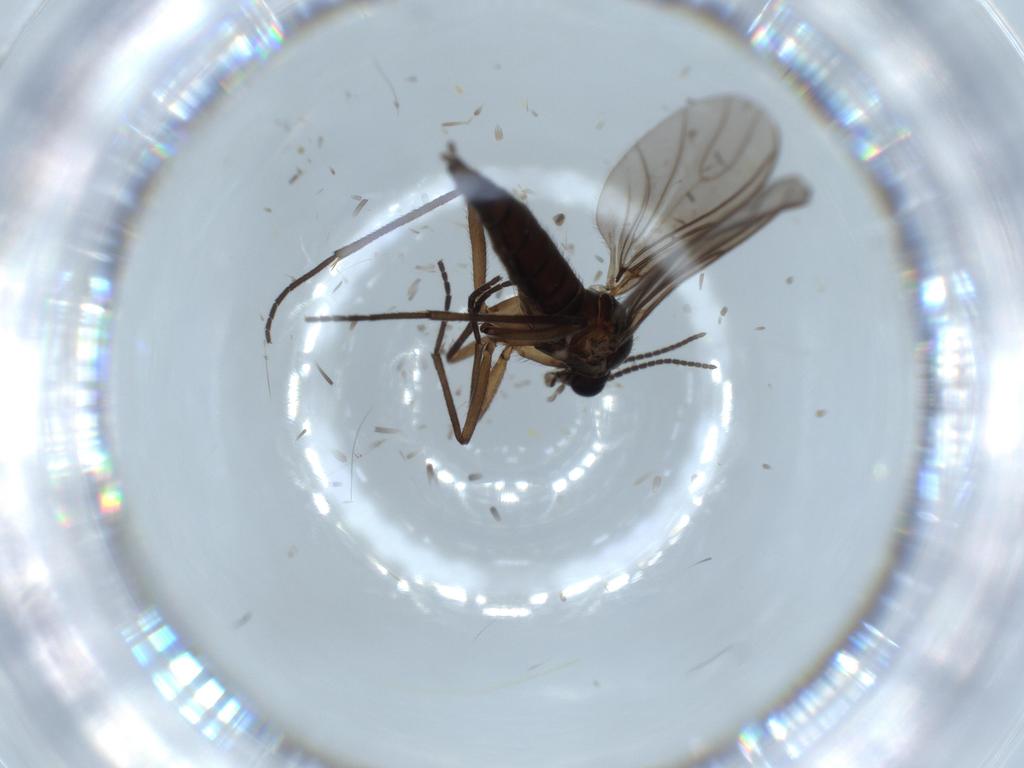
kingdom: Animalia
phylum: Arthropoda
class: Insecta
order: Diptera
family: Sciaridae
